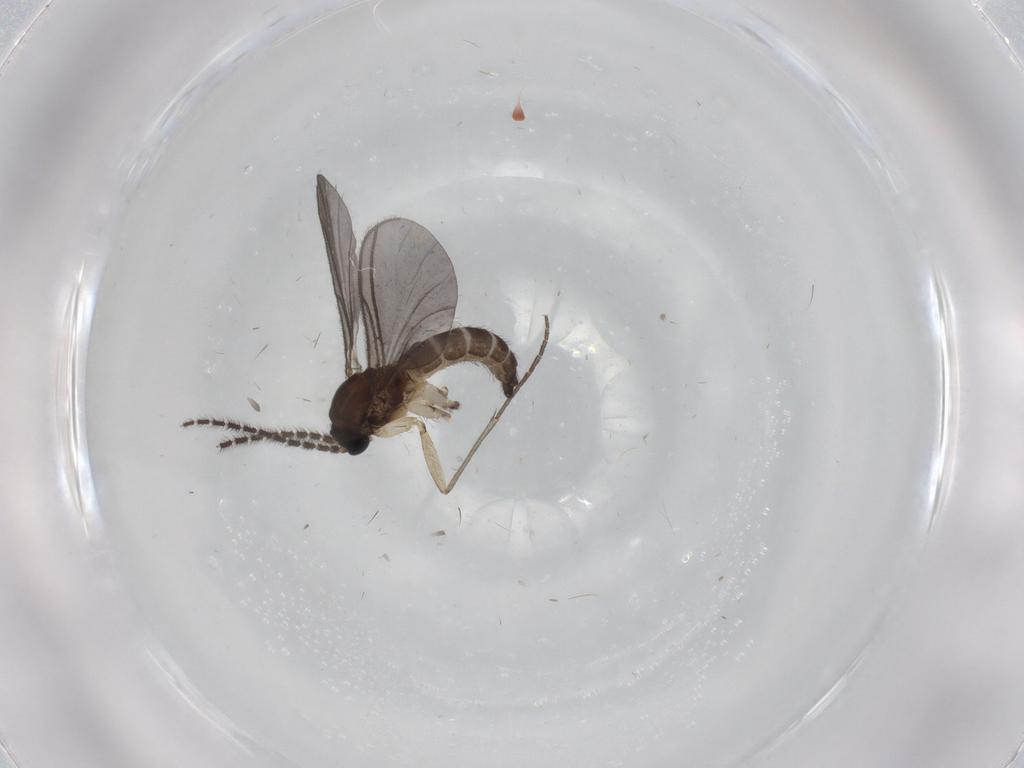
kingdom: Animalia
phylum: Arthropoda
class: Insecta
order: Diptera
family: Sciaridae
